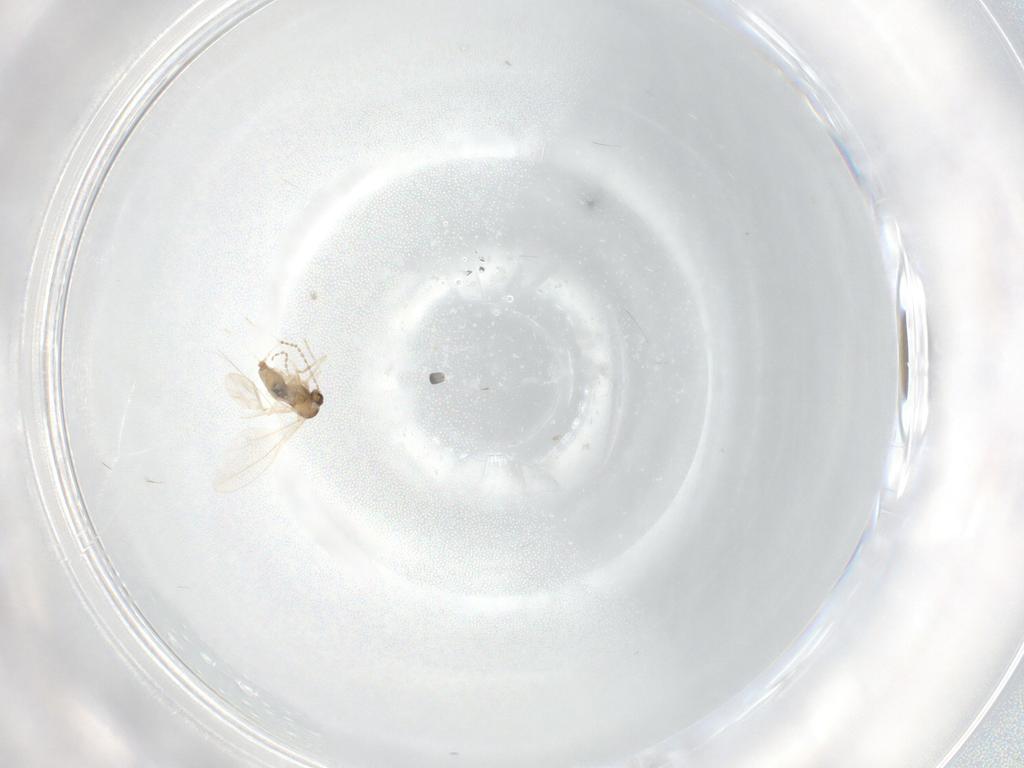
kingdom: Animalia
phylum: Arthropoda
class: Insecta
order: Diptera
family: Cecidomyiidae
